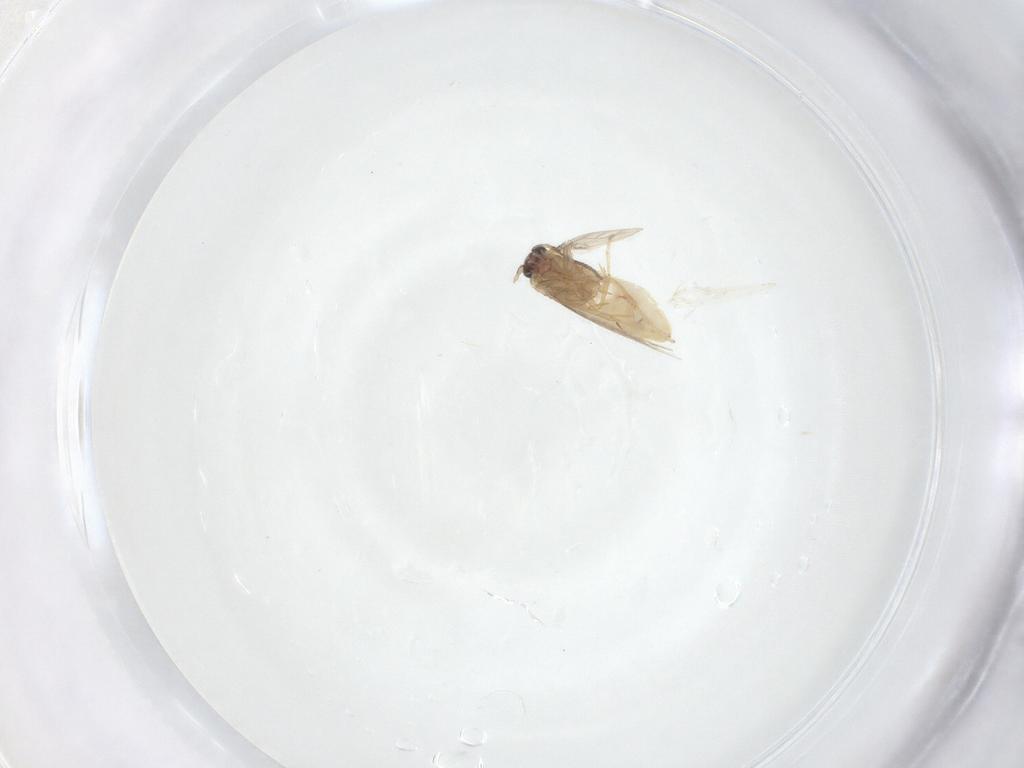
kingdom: Animalia
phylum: Arthropoda
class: Insecta
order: Lepidoptera
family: Nepticulidae
